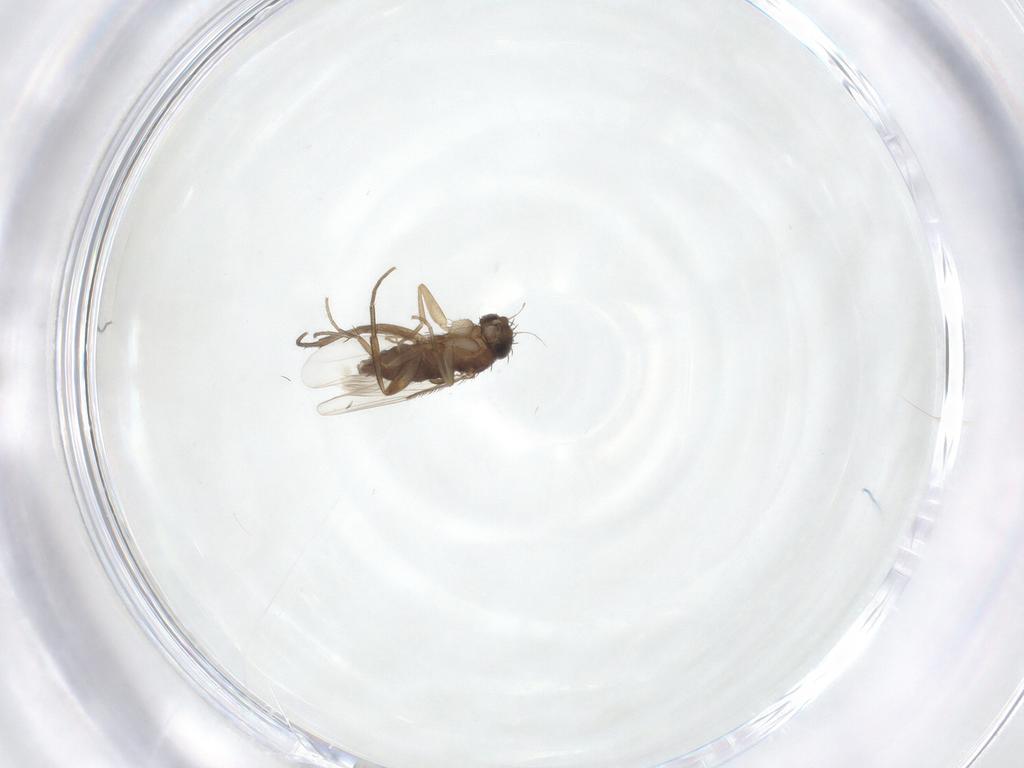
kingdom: Animalia
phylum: Arthropoda
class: Insecta
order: Diptera
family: Phoridae
